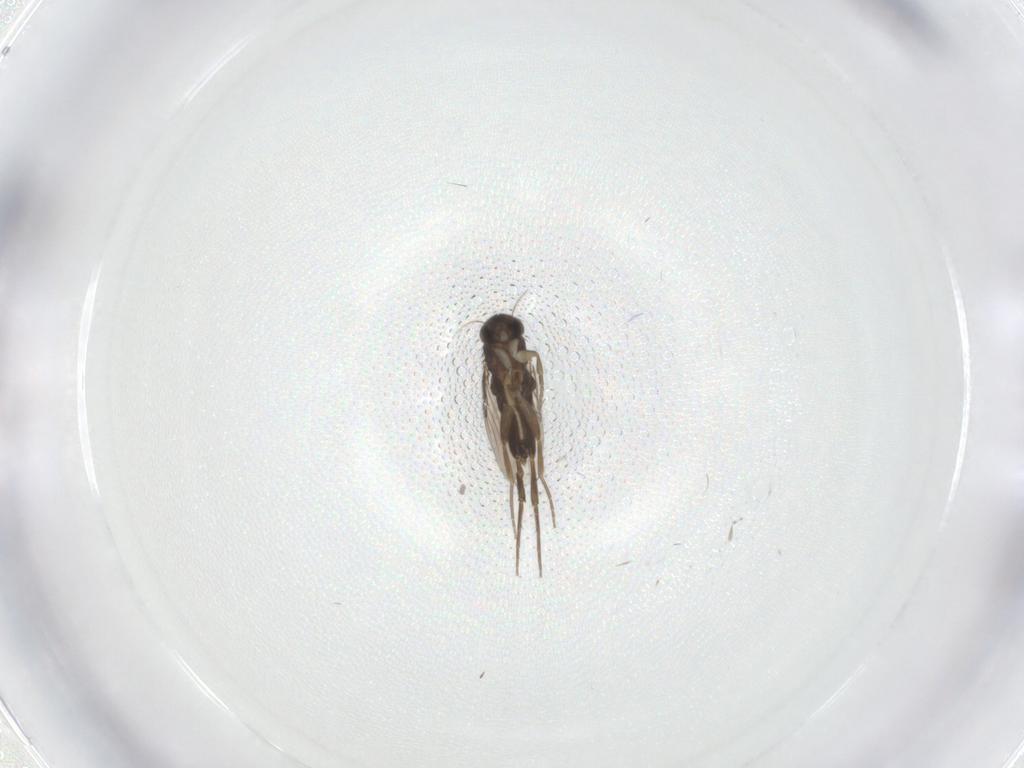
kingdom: Animalia
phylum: Arthropoda
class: Insecta
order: Diptera
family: Phoridae
